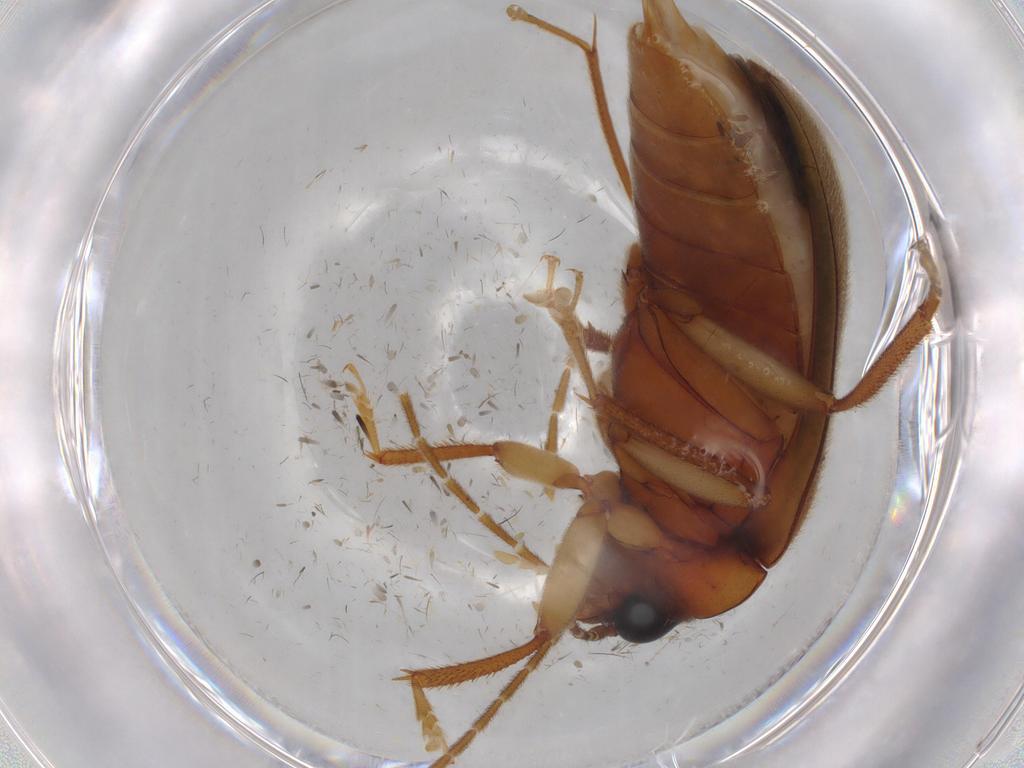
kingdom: Animalia
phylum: Arthropoda
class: Insecta
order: Coleoptera
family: Ptilodactylidae
